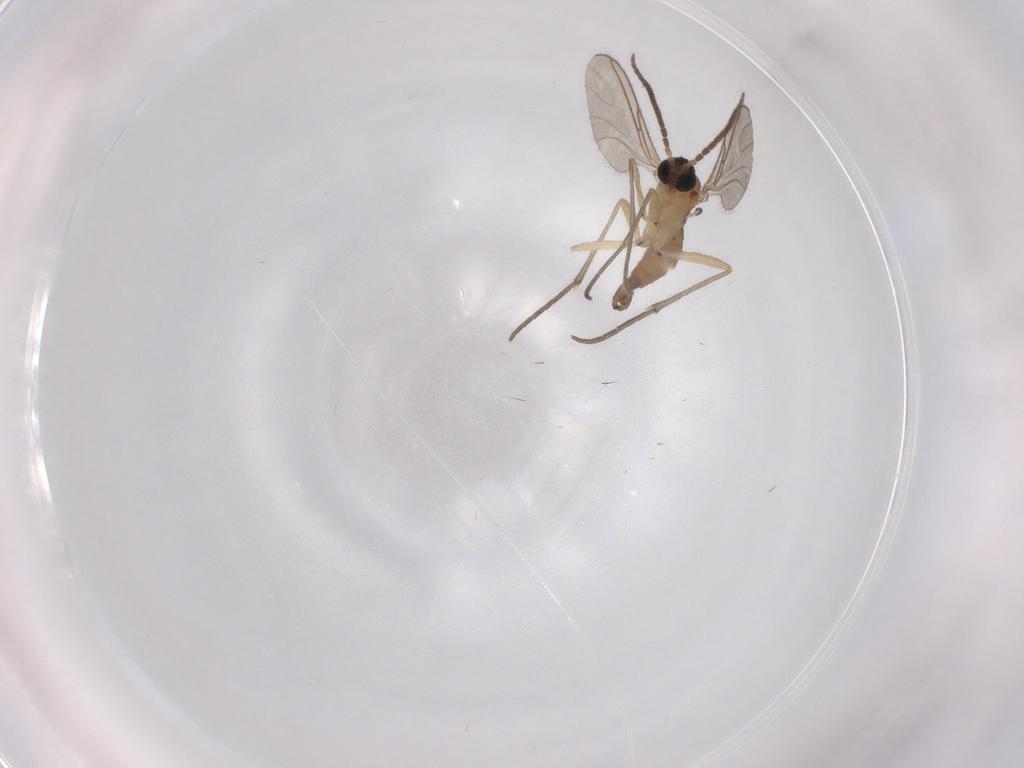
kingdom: Animalia
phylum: Arthropoda
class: Insecta
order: Diptera
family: Sciaridae
